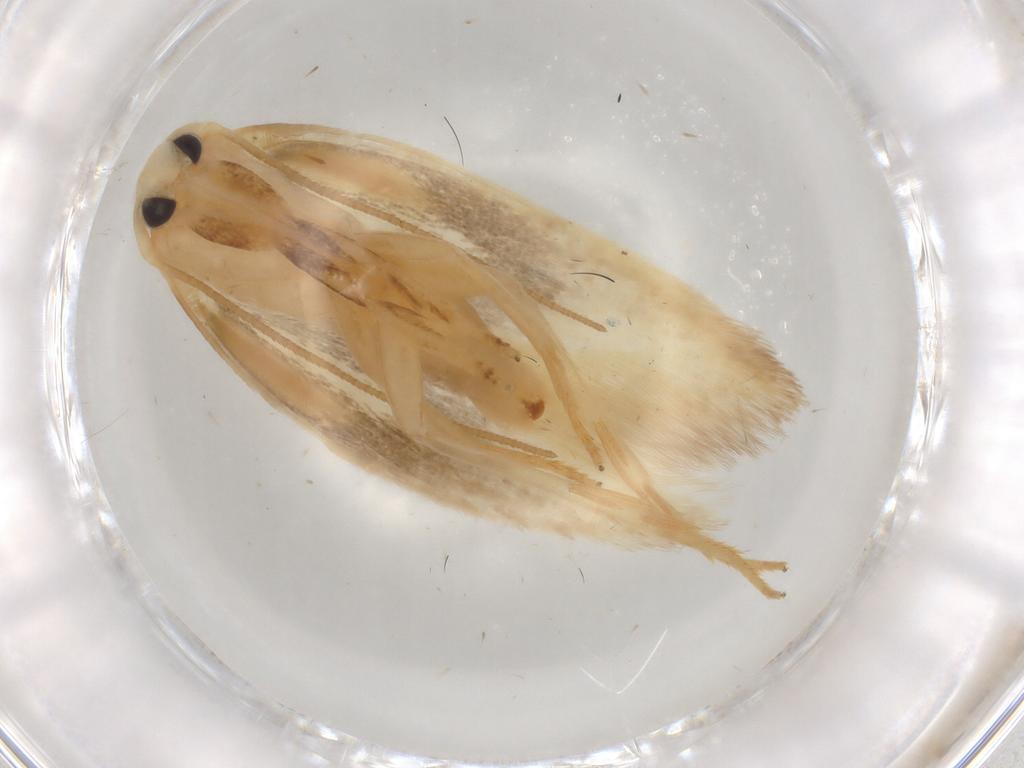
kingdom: Animalia
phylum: Arthropoda
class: Insecta
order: Lepidoptera
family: Geometridae
